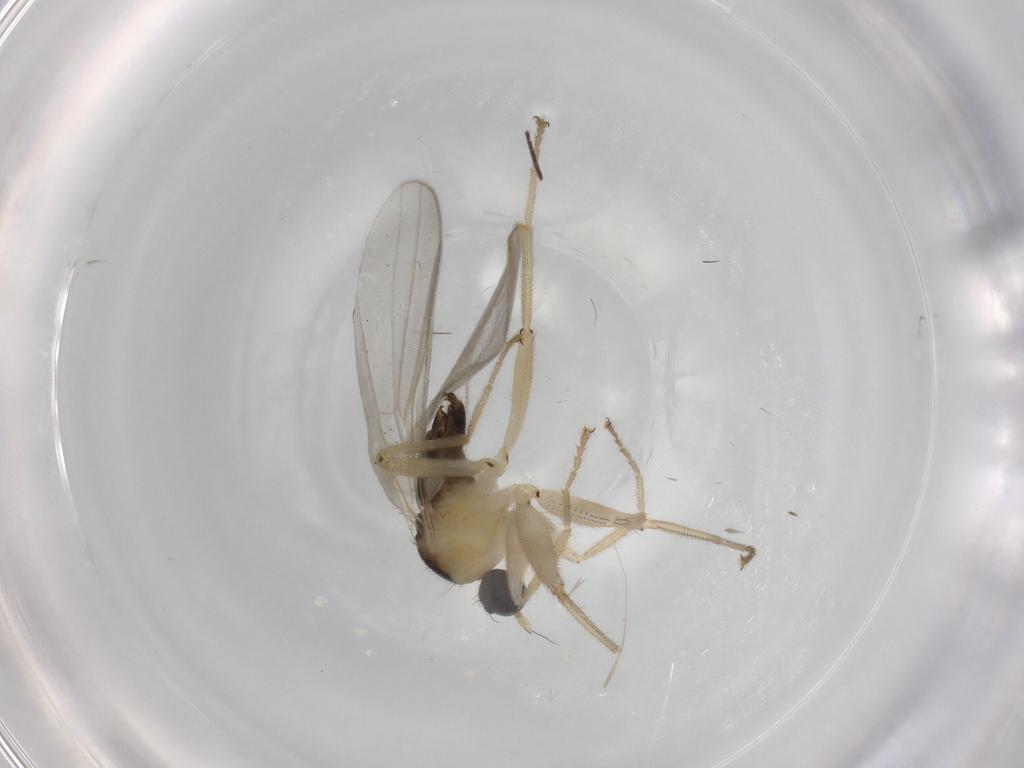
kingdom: Animalia
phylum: Arthropoda
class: Insecta
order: Diptera
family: Hybotidae
